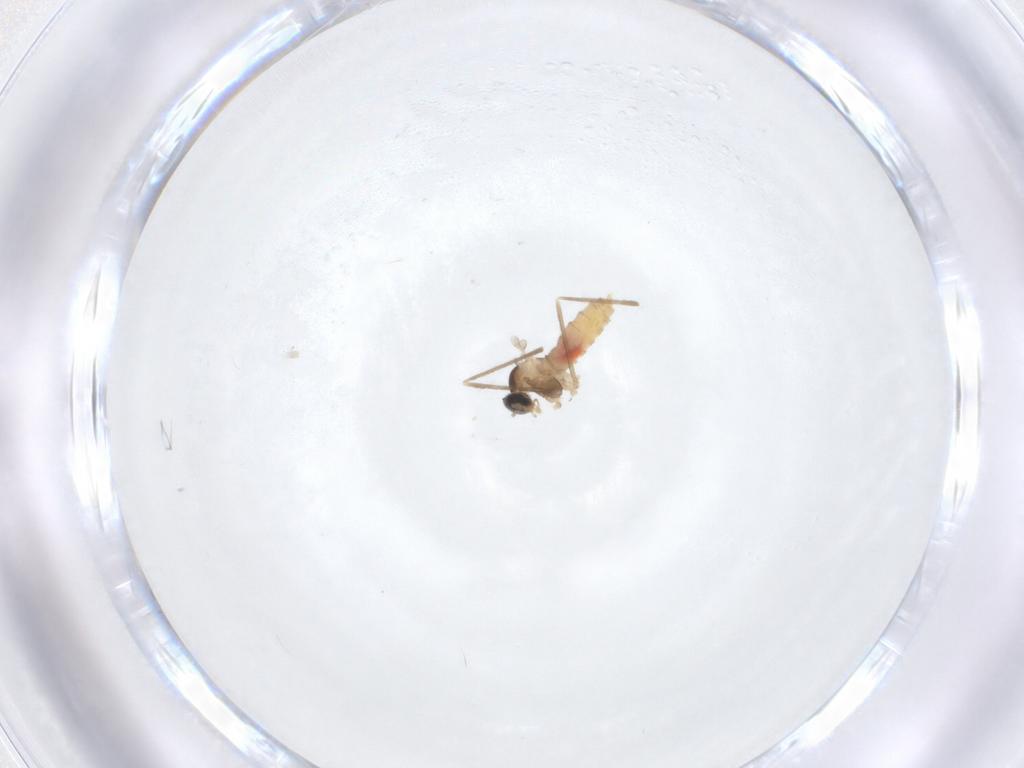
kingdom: Animalia
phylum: Arthropoda
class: Insecta
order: Diptera
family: Cecidomyiidae
